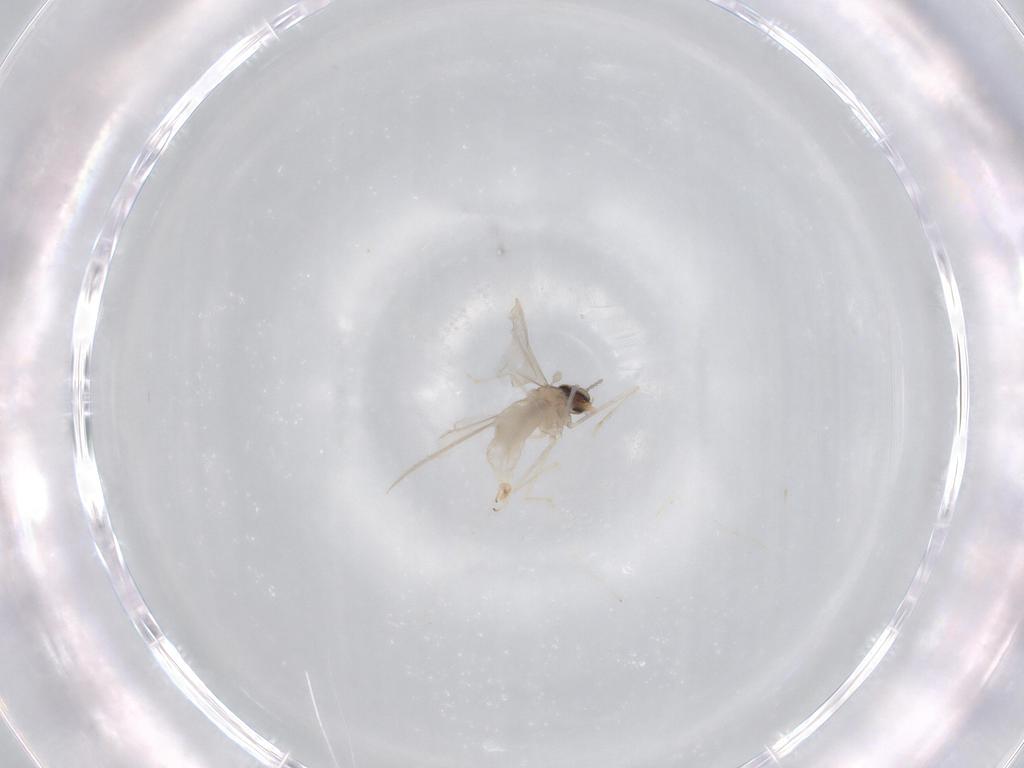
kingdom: Animalia
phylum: Arthropoda
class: Insecta
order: Diptera
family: Cecidomyiidae
